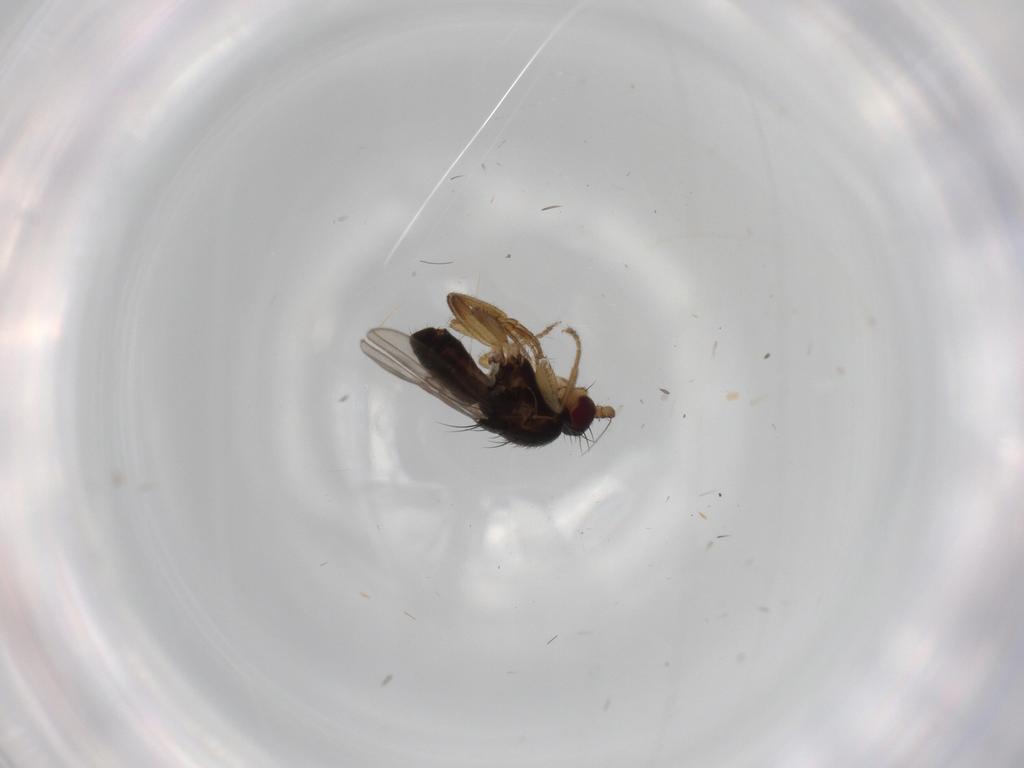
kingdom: Animalia
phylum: Arthropoda
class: Insecta
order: Diptera
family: Sphaeroceridae
